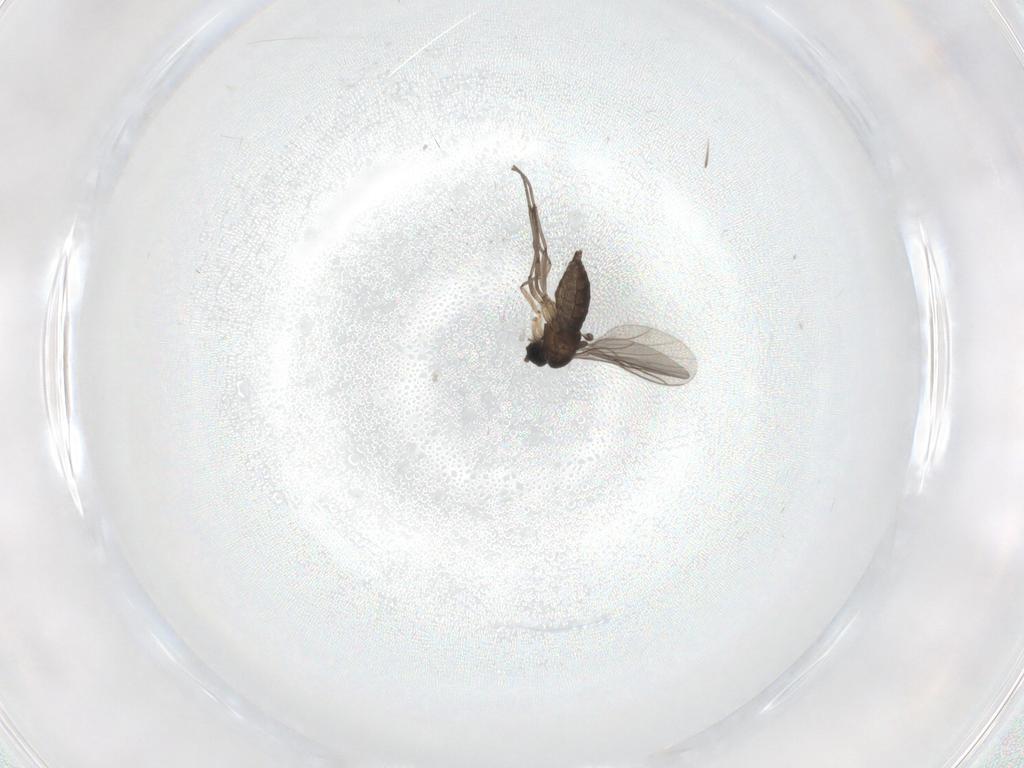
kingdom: Animalia
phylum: Arthropoda
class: Insecta
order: Diptera
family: Sciaridae
